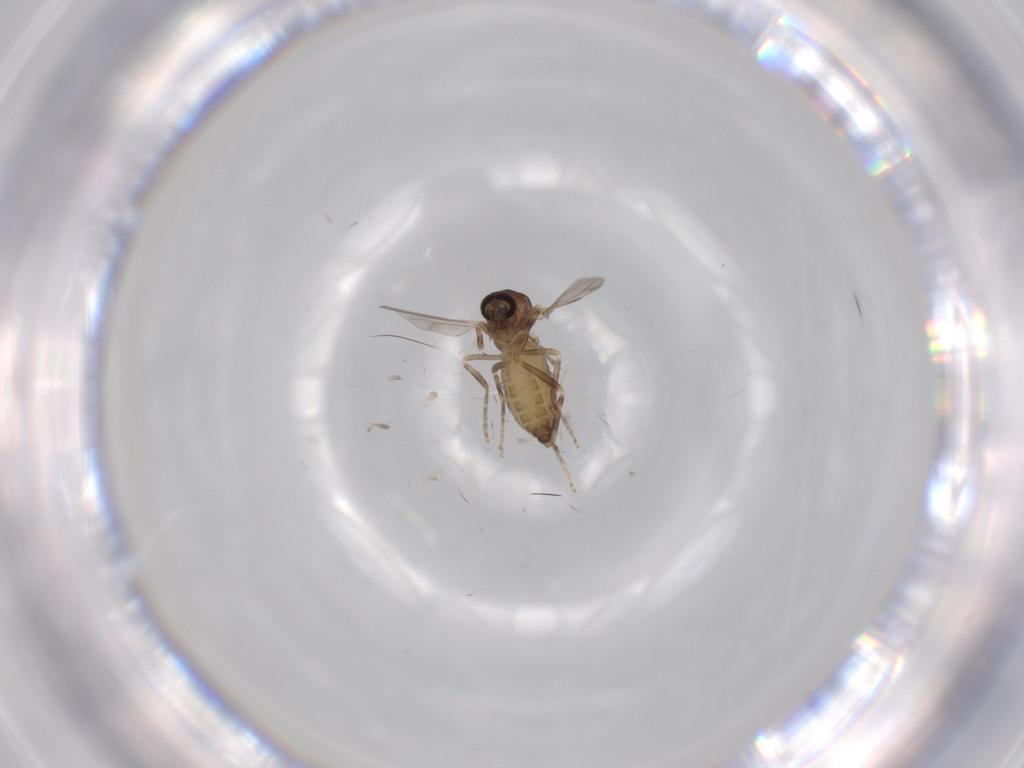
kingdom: Animalia
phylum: Arthropoda
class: Insecta
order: Diptera
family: Ceratopogonidae
